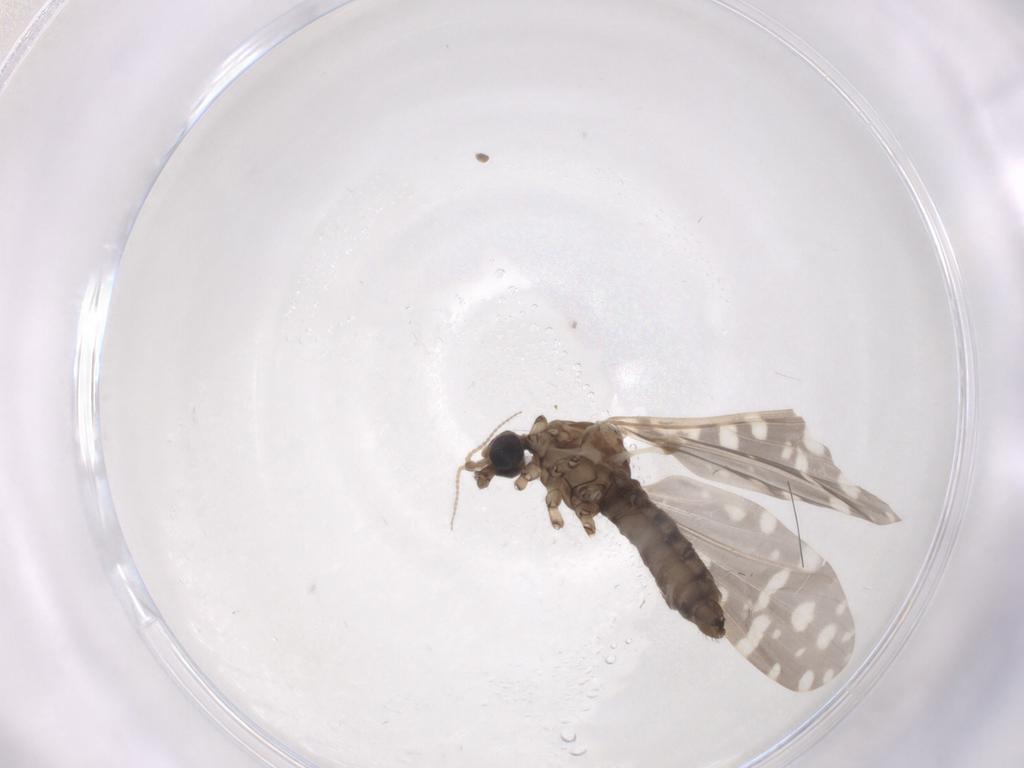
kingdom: Animalia
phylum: Arthropoda
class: Insecta
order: Diptera
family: Phoridae
